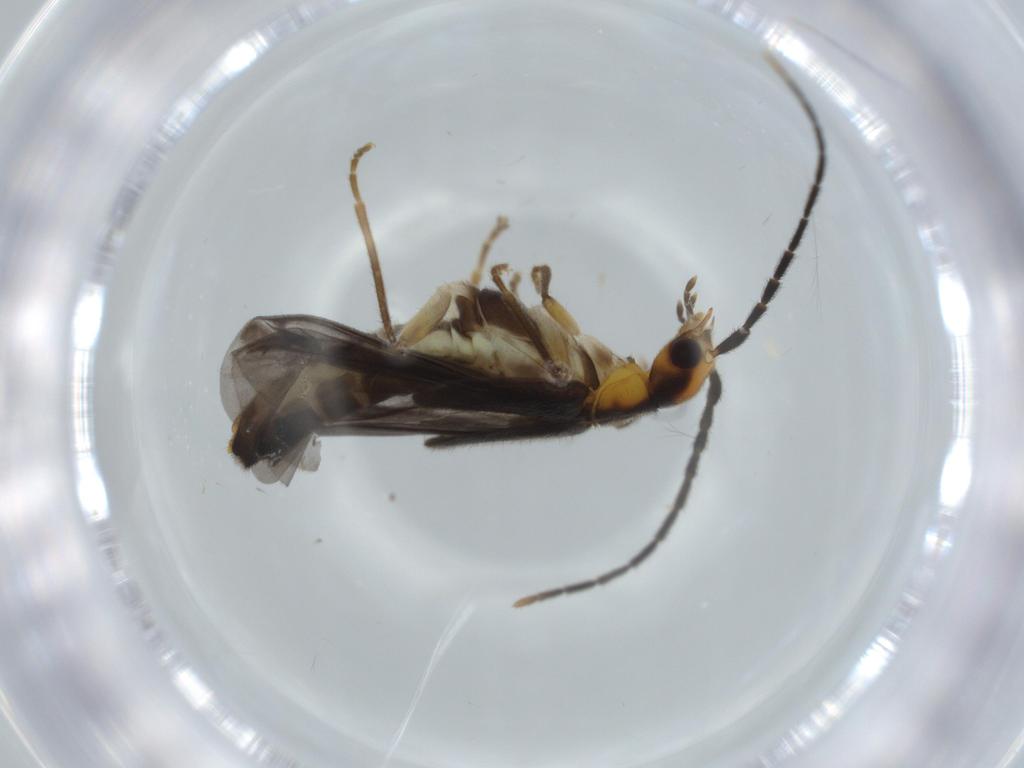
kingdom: Animalia
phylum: Arthropoda
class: Insecta
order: Coleoptera
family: Cantharidae
